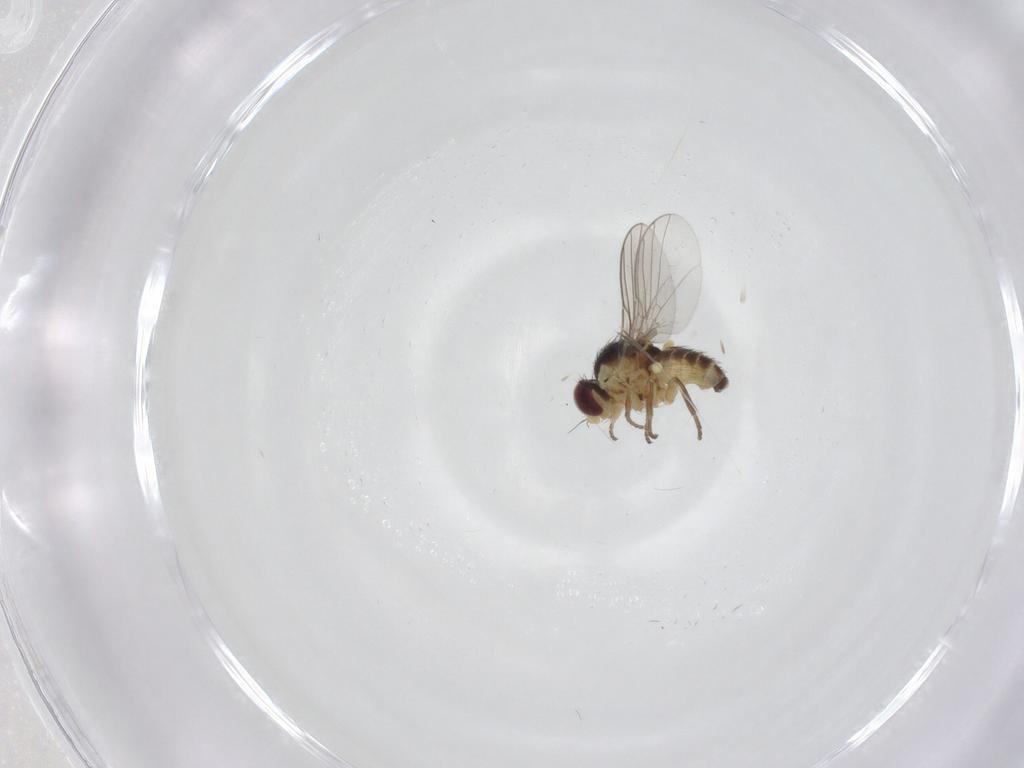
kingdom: Animalia
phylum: Arthropoda
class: Insecta
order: Diptera
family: Agromyzidae
